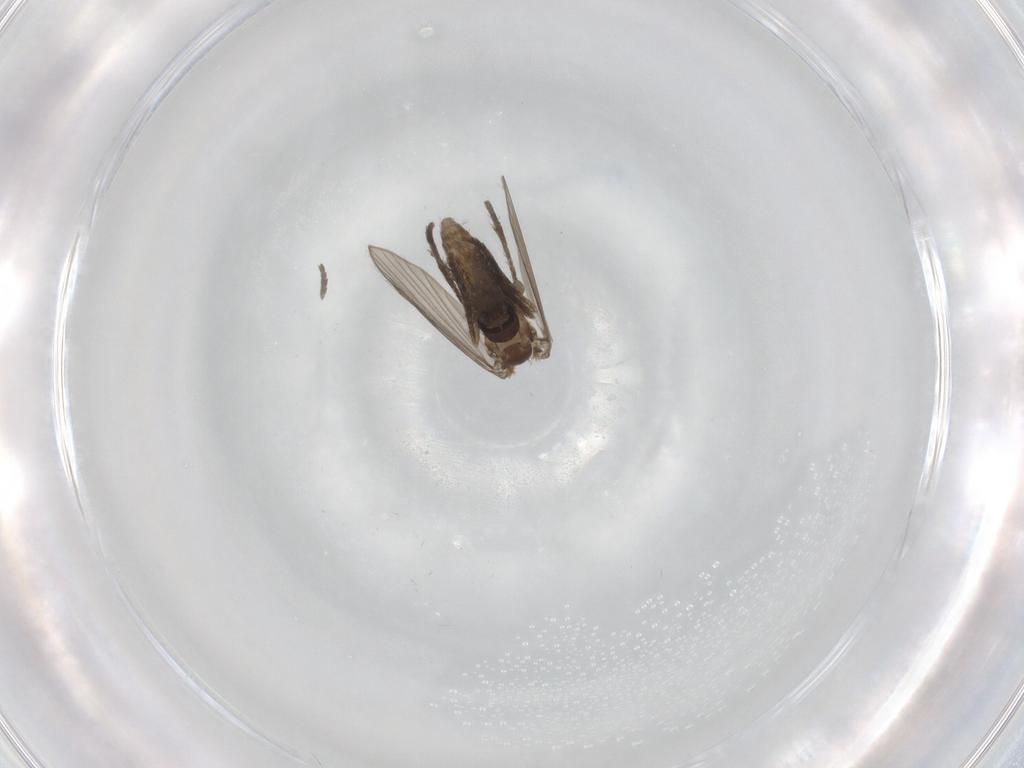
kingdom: Animalia
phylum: Arthropoda
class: Insecta
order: Diptera
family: Psychodidae
